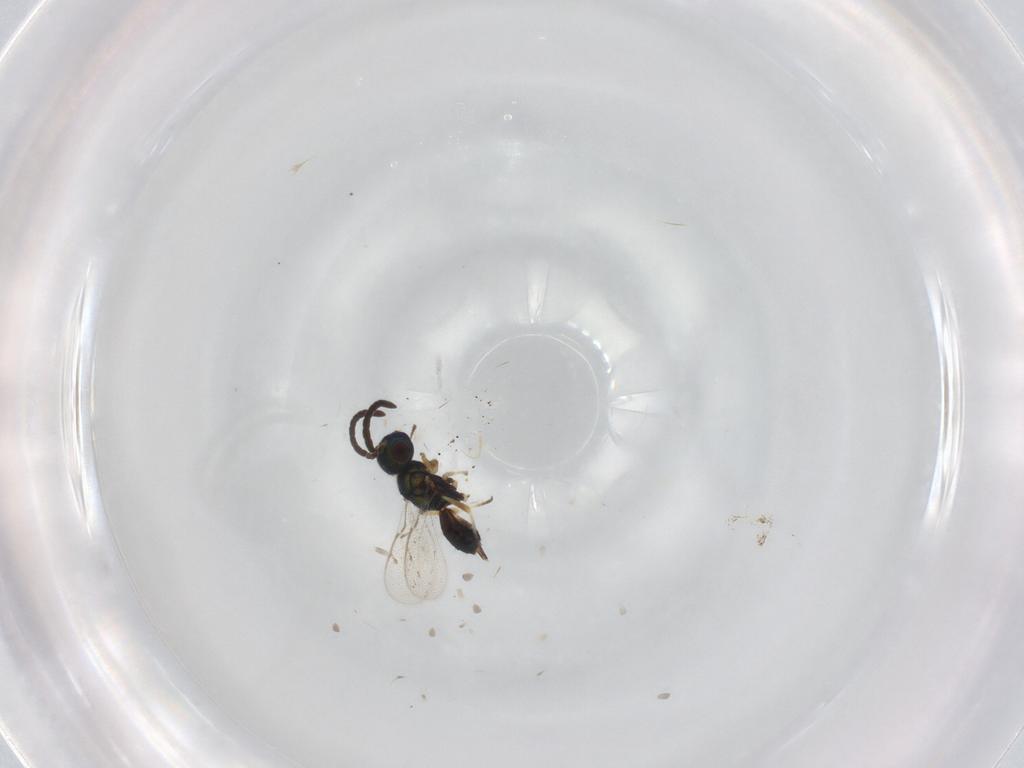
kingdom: Animalia
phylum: Arthropoda
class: Insecta
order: Hymenoptera
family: Eupelmidae
